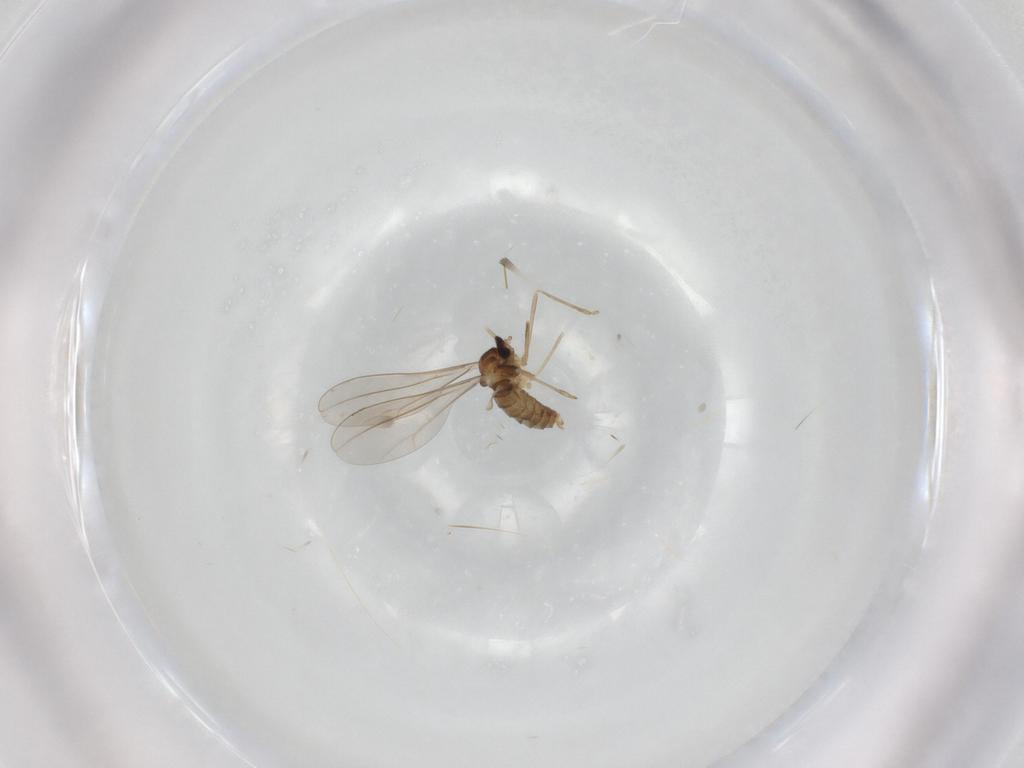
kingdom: Animalia
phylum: Arthropoda
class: Insecta
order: Diptera
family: Cecidomyiidae
